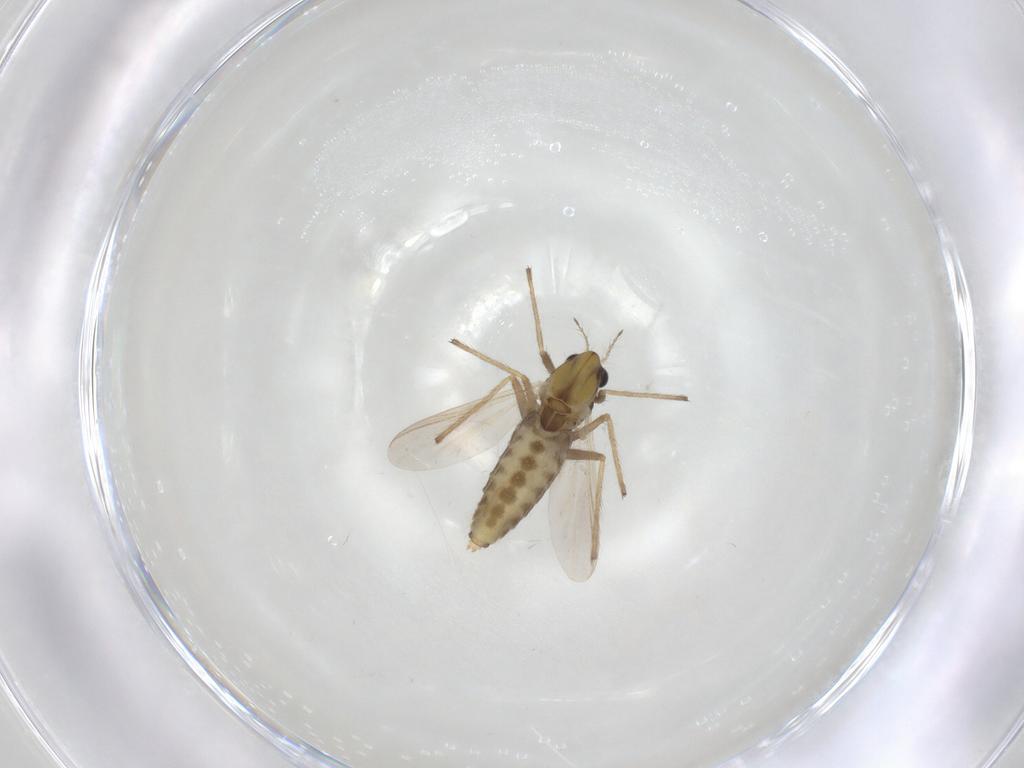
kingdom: Animalia
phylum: Arthropoda
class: Insecta
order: Diptera
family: Chironomidae
